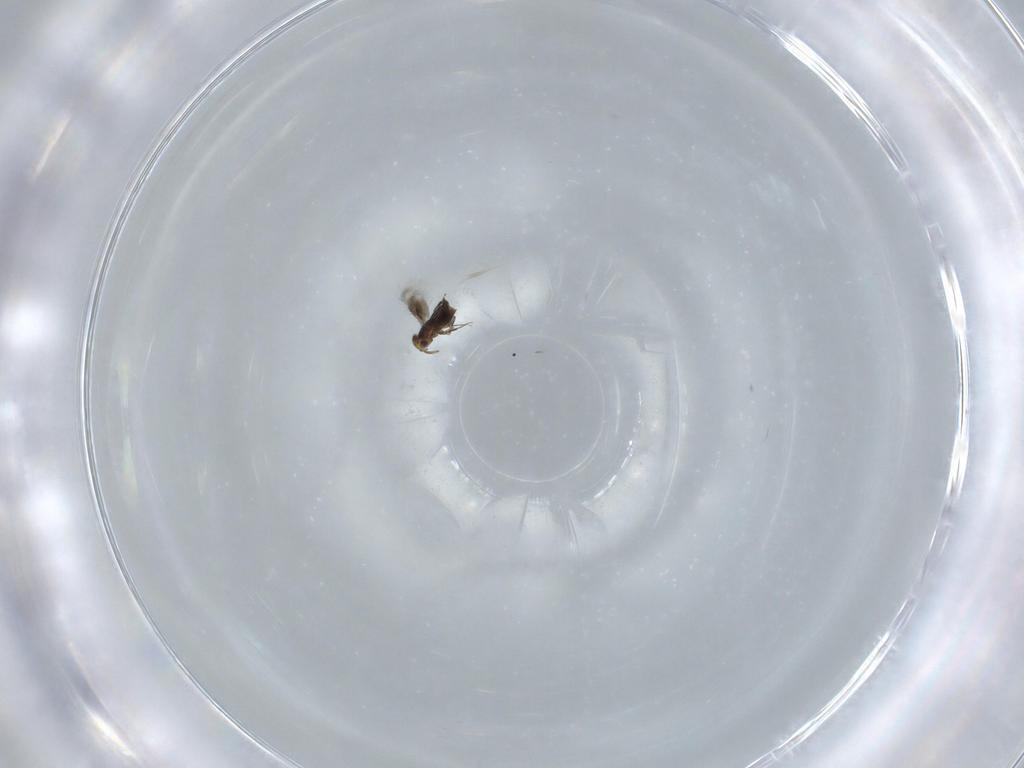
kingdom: Animalia
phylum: Arthropoda
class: Insecta
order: Hymenoptera
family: Signiphoridae
